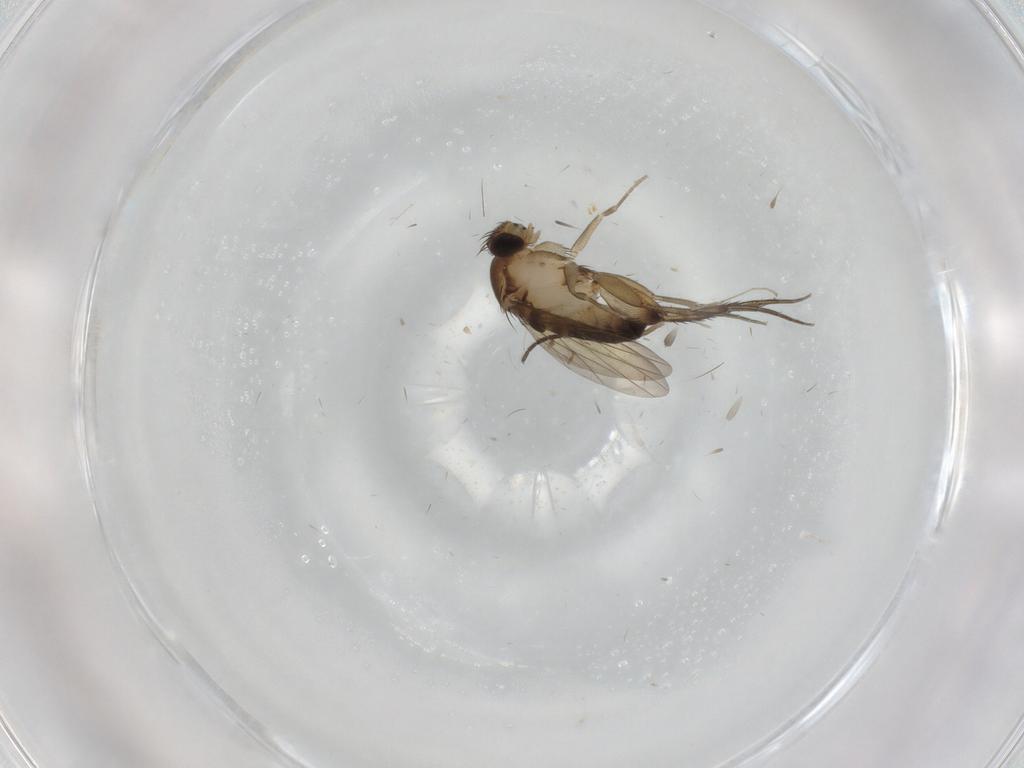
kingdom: Animalia
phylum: Arthropoda
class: Insecta
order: Diptera
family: Phoridae
